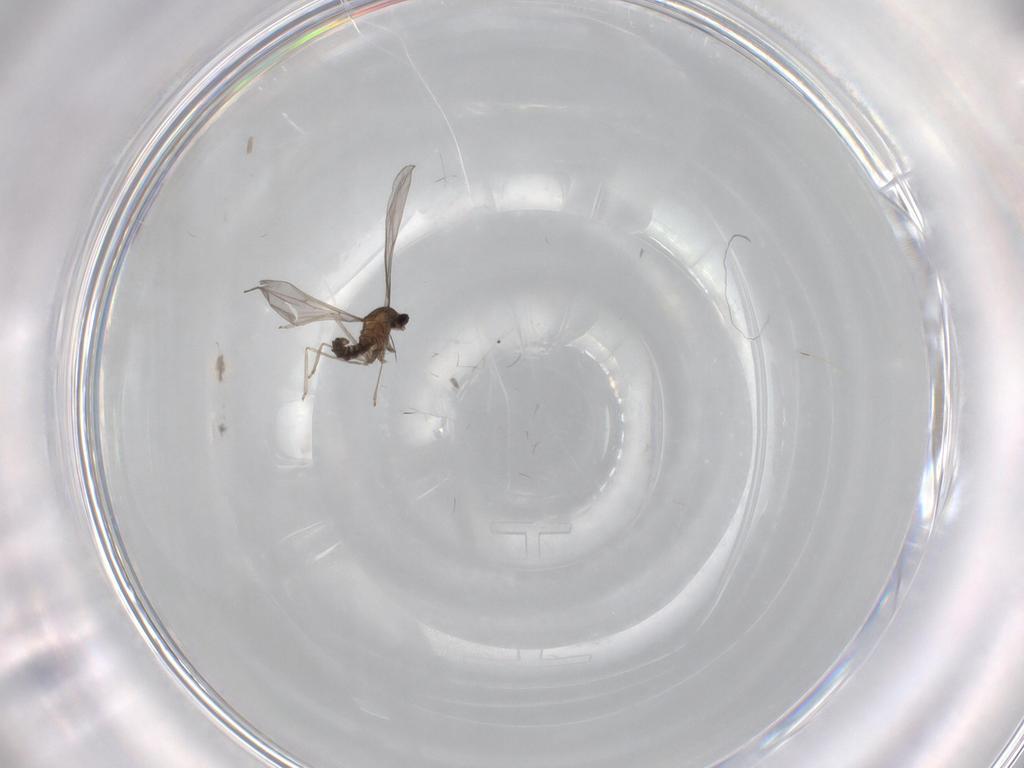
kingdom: Animalia
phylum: Arthropoda
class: Insecta
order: Diptera
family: Cecidomyiidae
